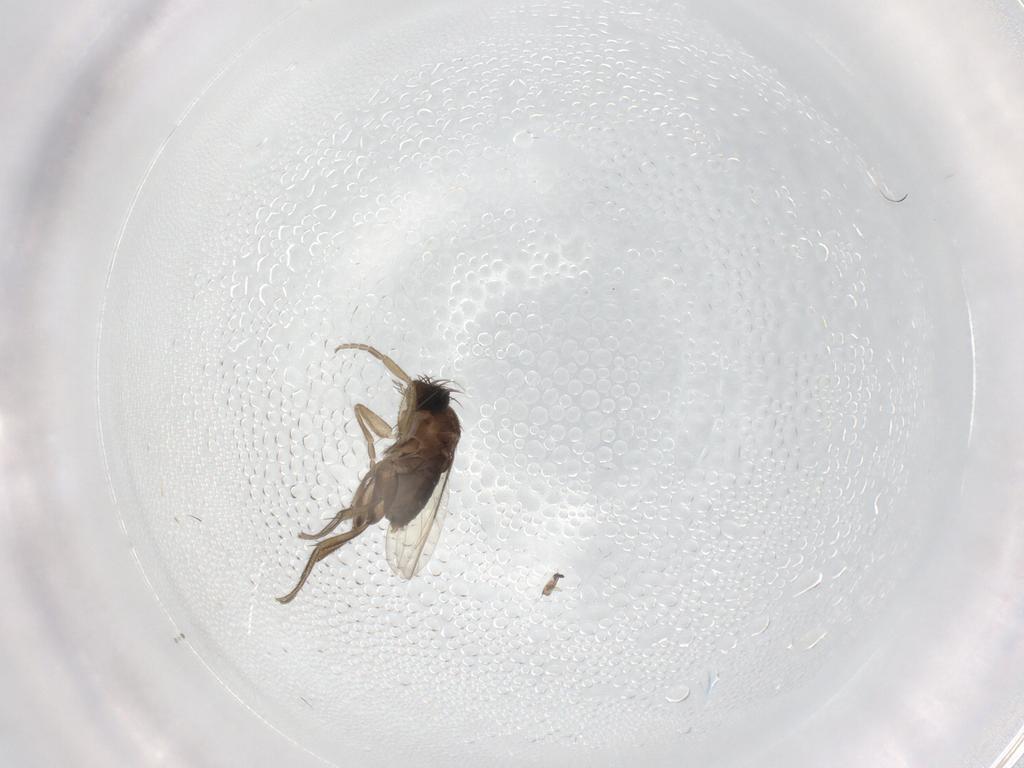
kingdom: Animalia
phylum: Arthropoda
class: Insecta
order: Diptera
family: Phoridae
